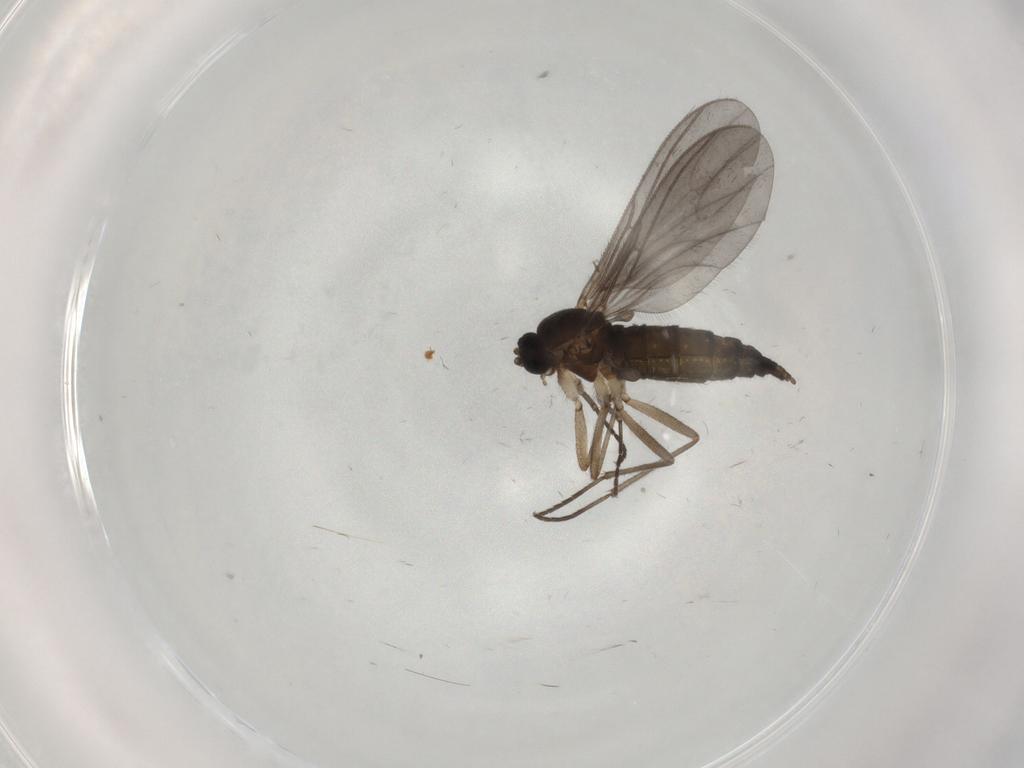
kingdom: Animalia
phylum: Arthropoda
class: Insecta
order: Diptera
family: Sciaridae
